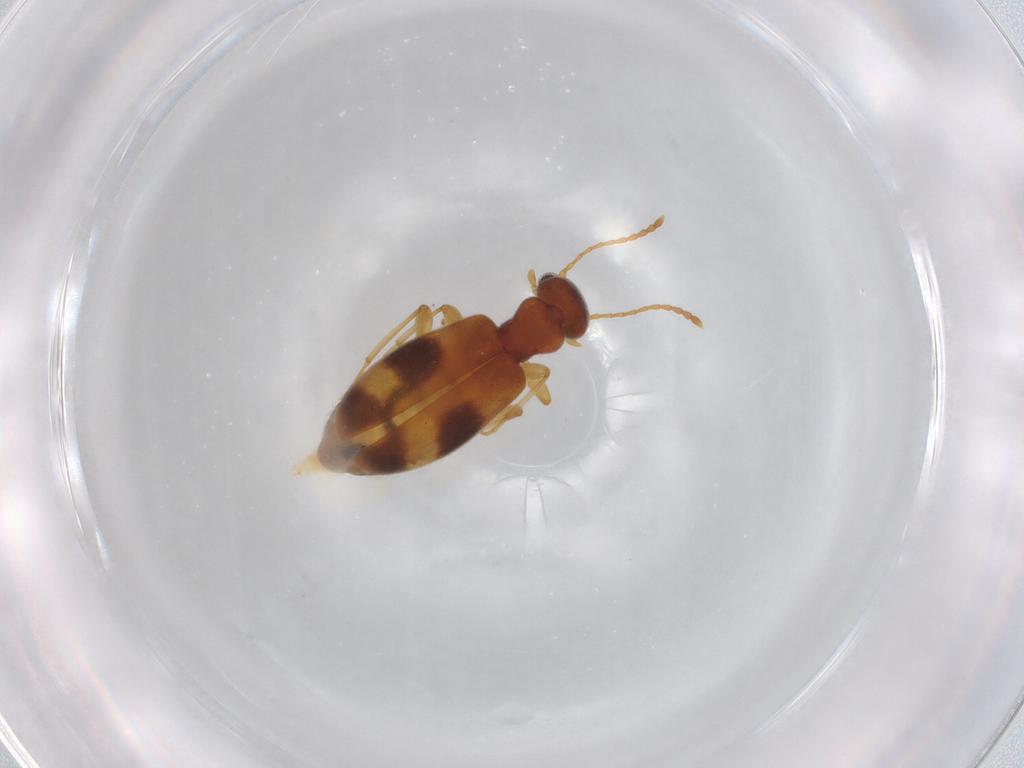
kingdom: Animalia
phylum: Arthropoda
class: Insecta
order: Coleoptera
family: Anthicidae
